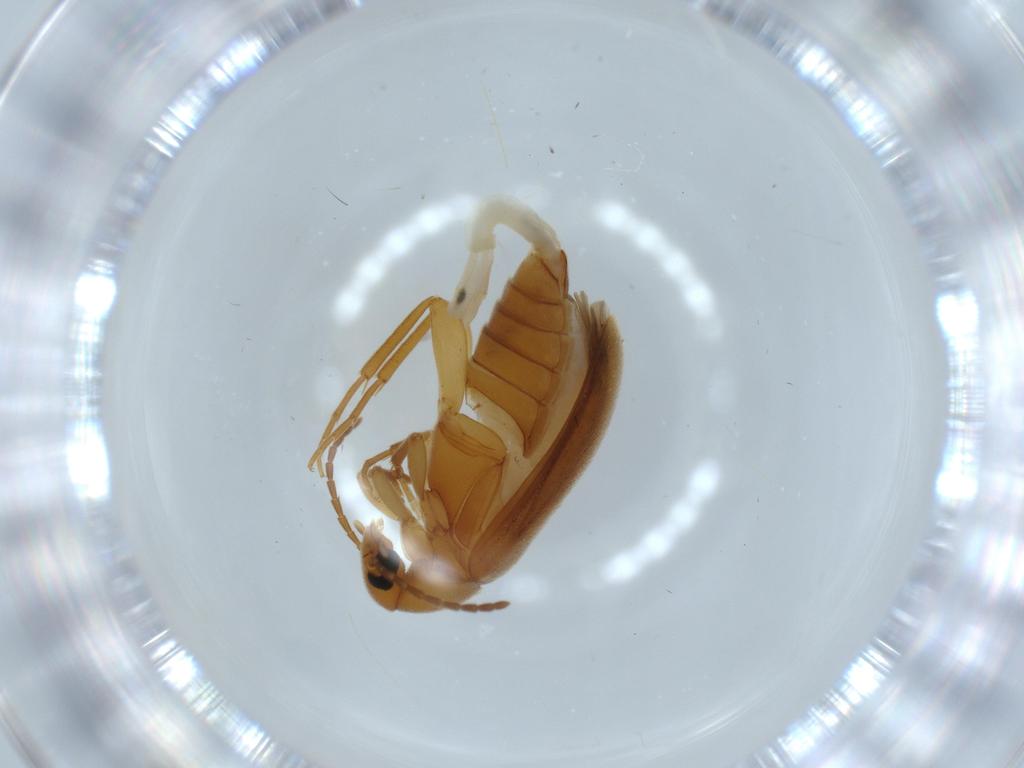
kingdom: Animalia
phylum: Arthropoda
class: Insecta
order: Coleoptera
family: Scraptiidae
